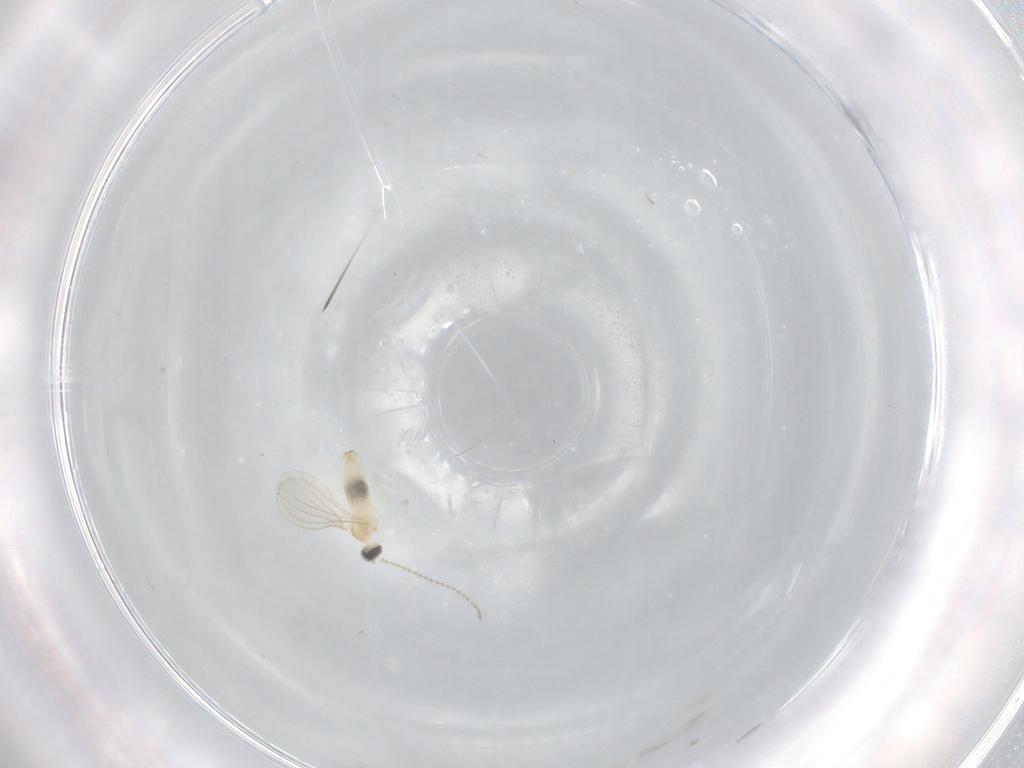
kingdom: Animalia
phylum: Arthropoda
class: Insecta
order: Diptera
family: Cecidomyiidae
